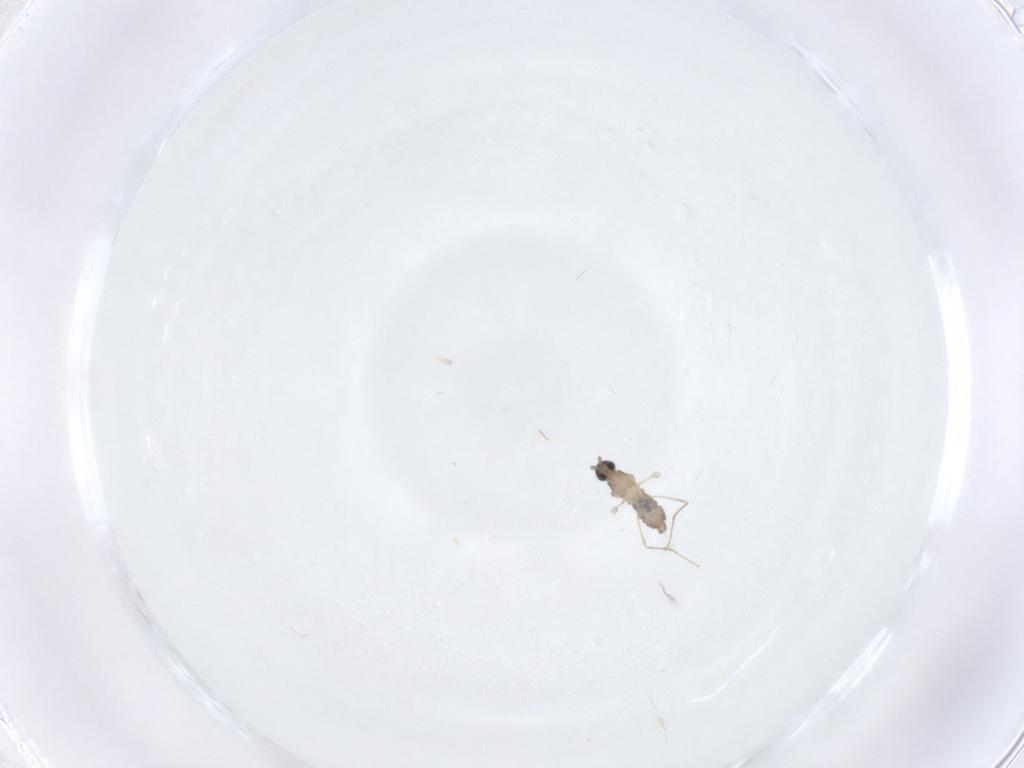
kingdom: Animalia
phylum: Arthropoda
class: Insecta
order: Diptera
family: Cecidomyiidae
